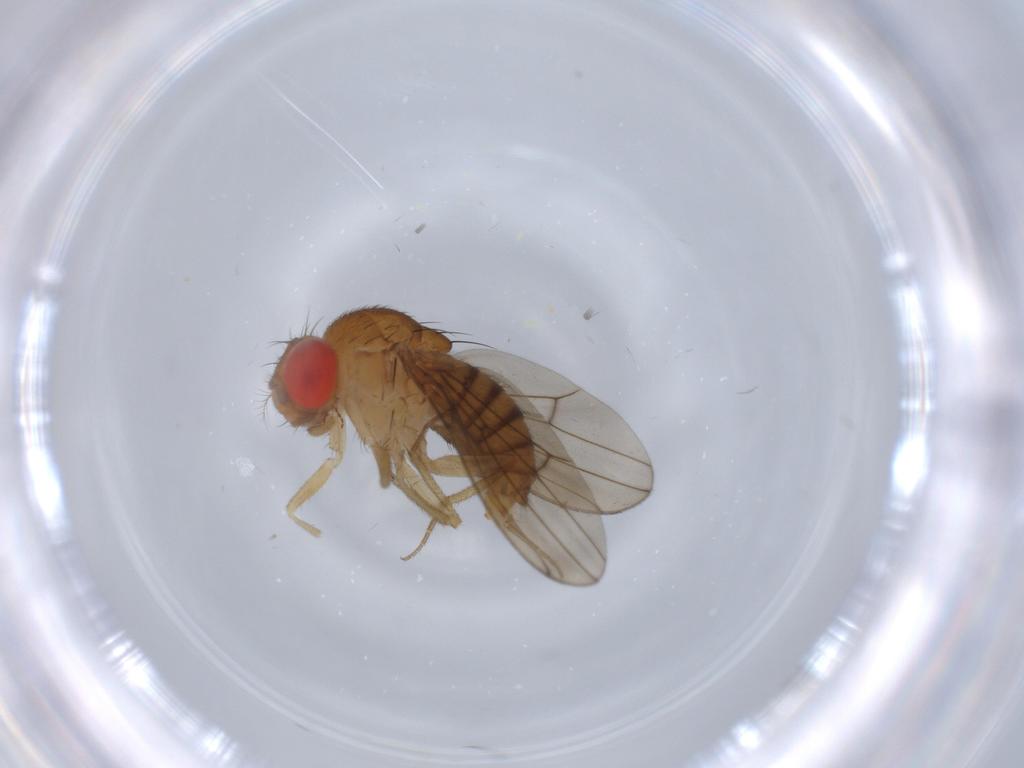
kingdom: Animalia
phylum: Arthropoda
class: Insecta
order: Diptera
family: Drosophilidae
